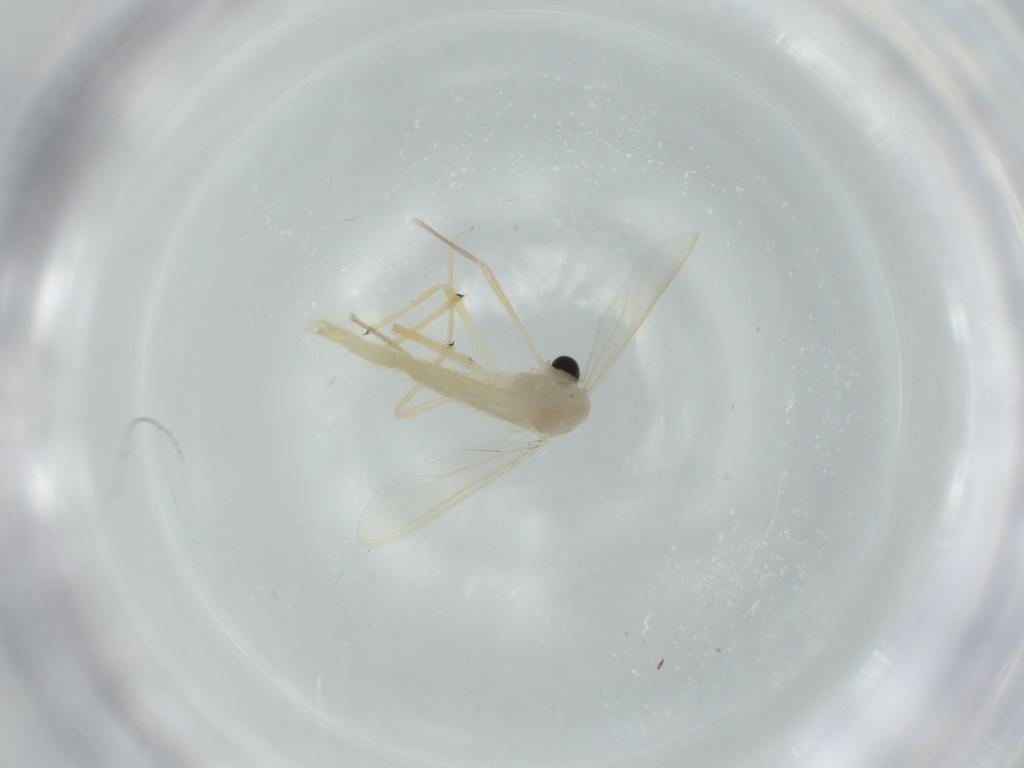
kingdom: Animalia
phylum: Arthropoda
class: Insecta
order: Diptera
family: Chironomidae
